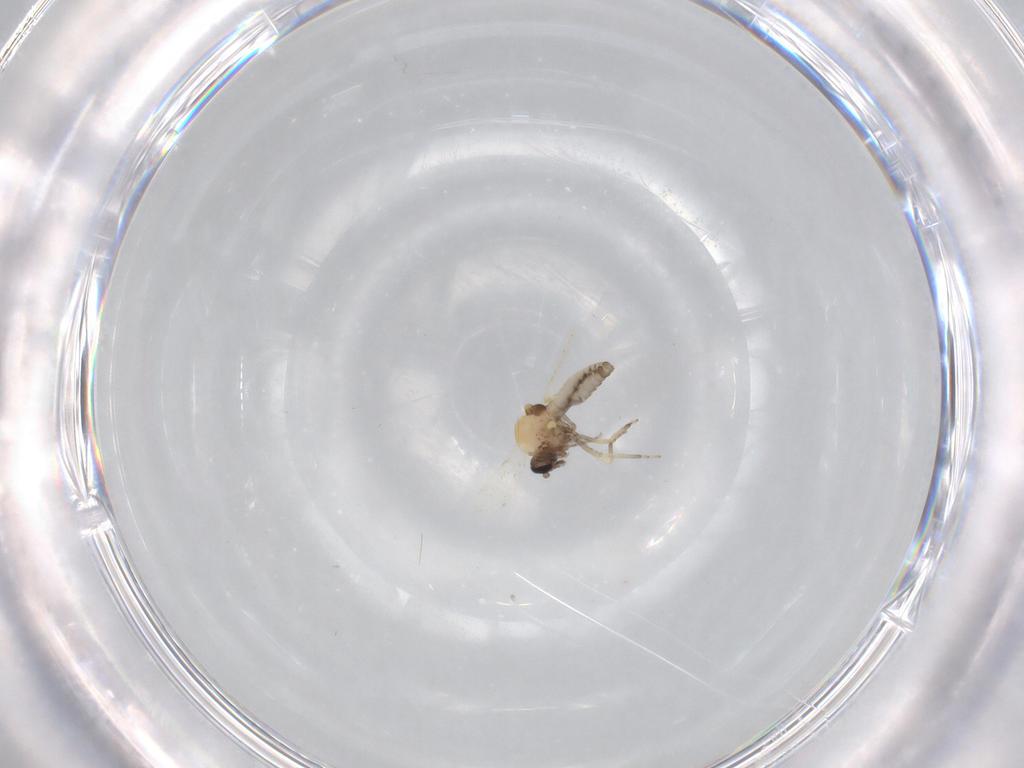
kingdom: Animalia
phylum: Arthropoda
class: Insecta
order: Diptera
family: Ceratopogonidae
